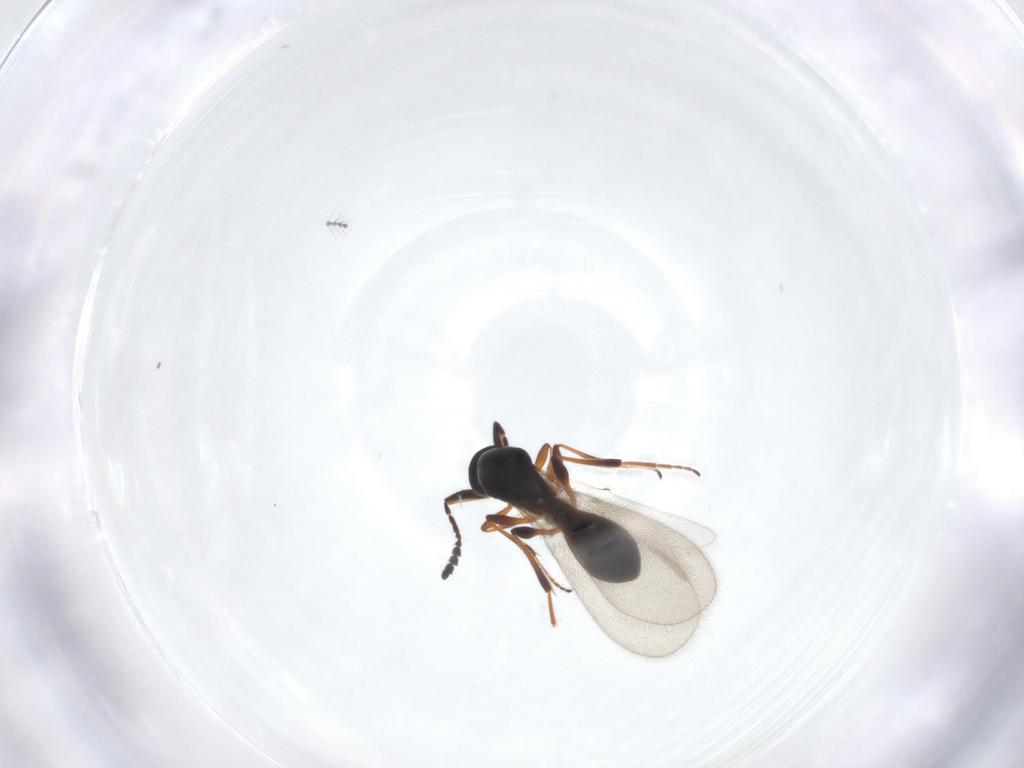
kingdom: Animalia
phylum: Arthropoda
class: Insecta
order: Hymenoptera
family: Platygastridae
